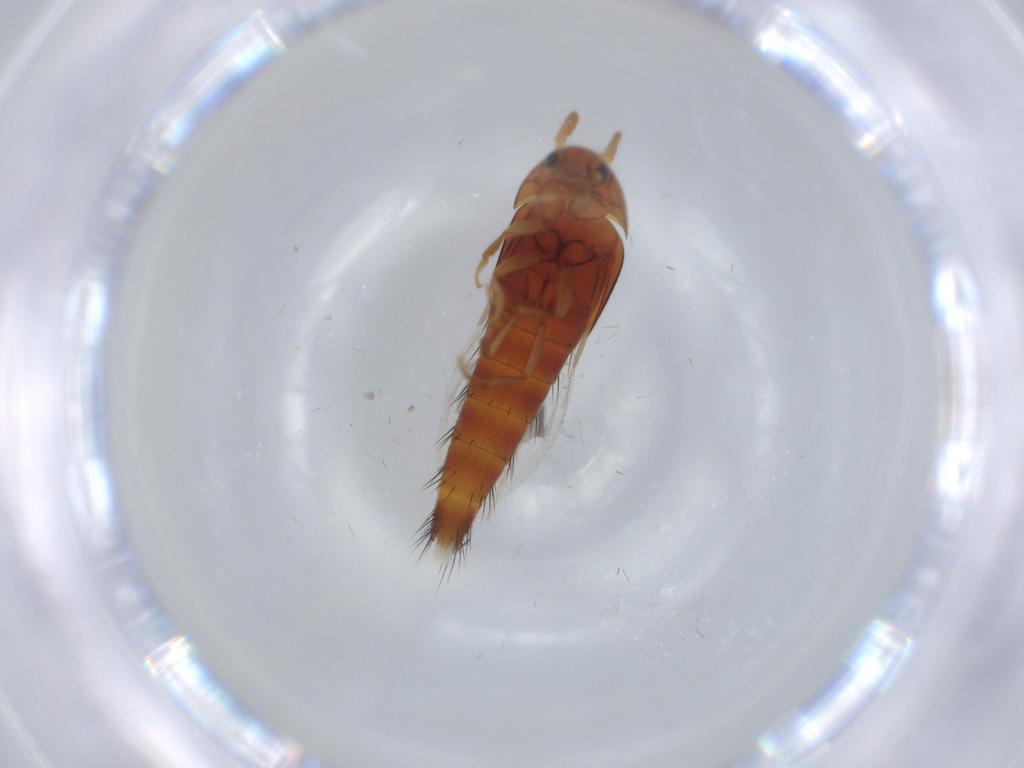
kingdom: Animalia
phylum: Arthropoda
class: Insecta
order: Coleoptera
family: Staphylinidae
